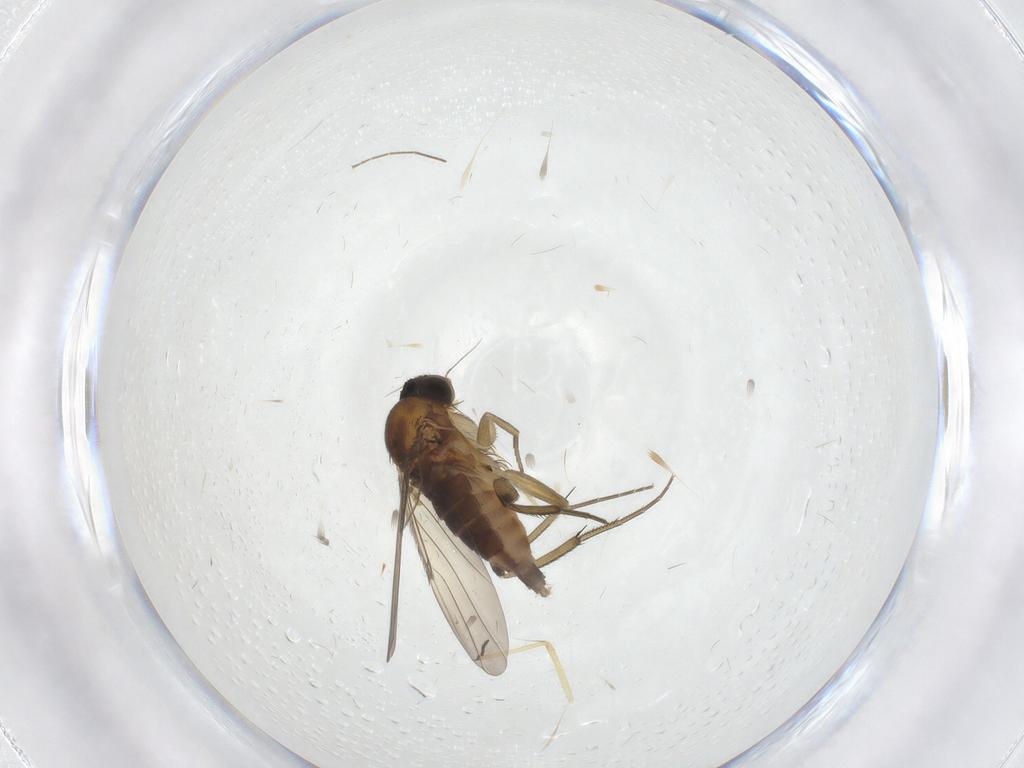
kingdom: Animalia
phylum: Arthropoda
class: Insecta
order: Diptera
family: Phoridae
